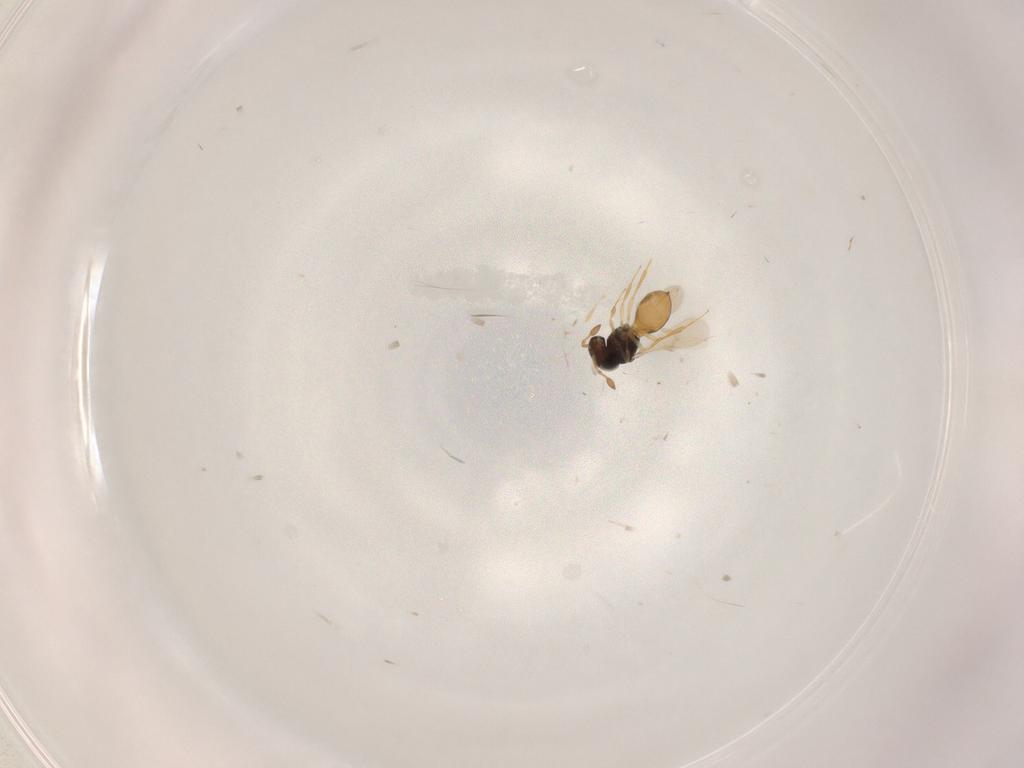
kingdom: Animalia
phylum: Arthropoda
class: Insecta
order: Hymenoptera
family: Scelionidae
